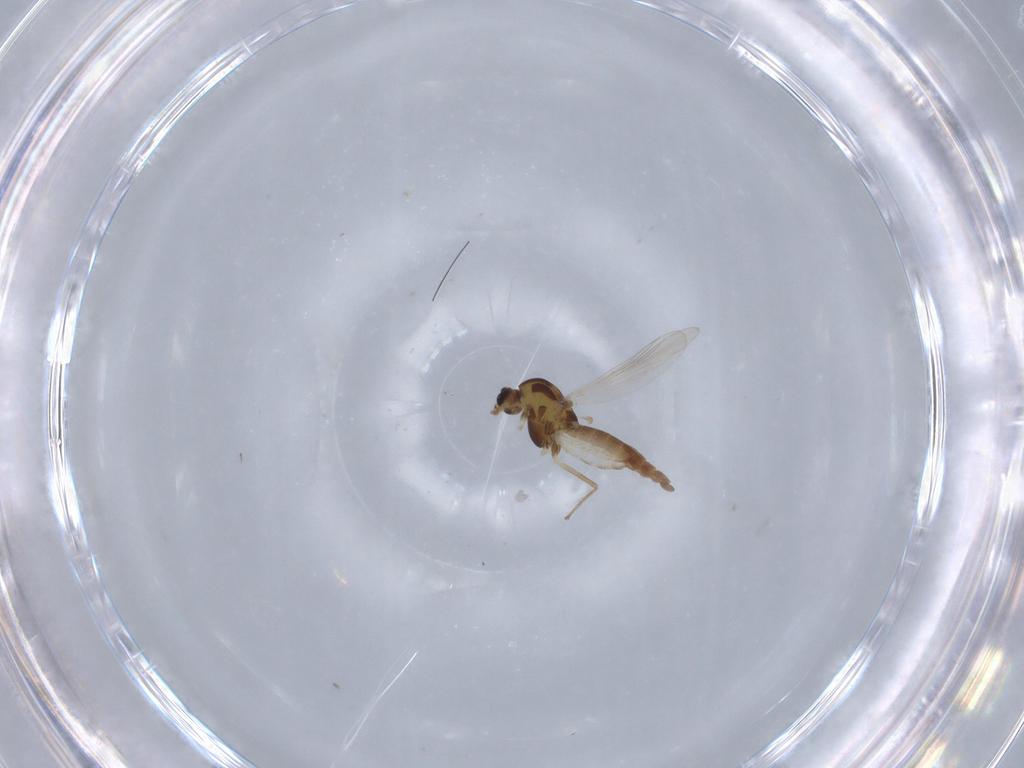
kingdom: Animalia
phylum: Arthropoda
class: Insecta
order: Diptera
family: Chironomidae
